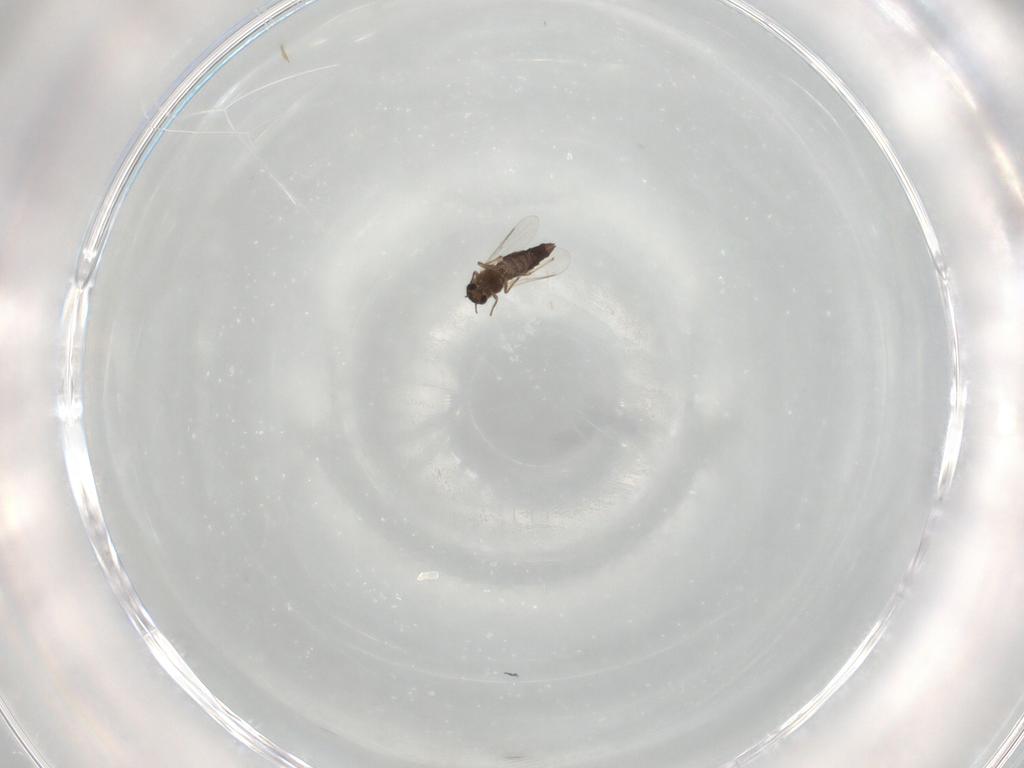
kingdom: Animalia
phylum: Arthropoda
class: Insecta
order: Diptera
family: Chironomidae
